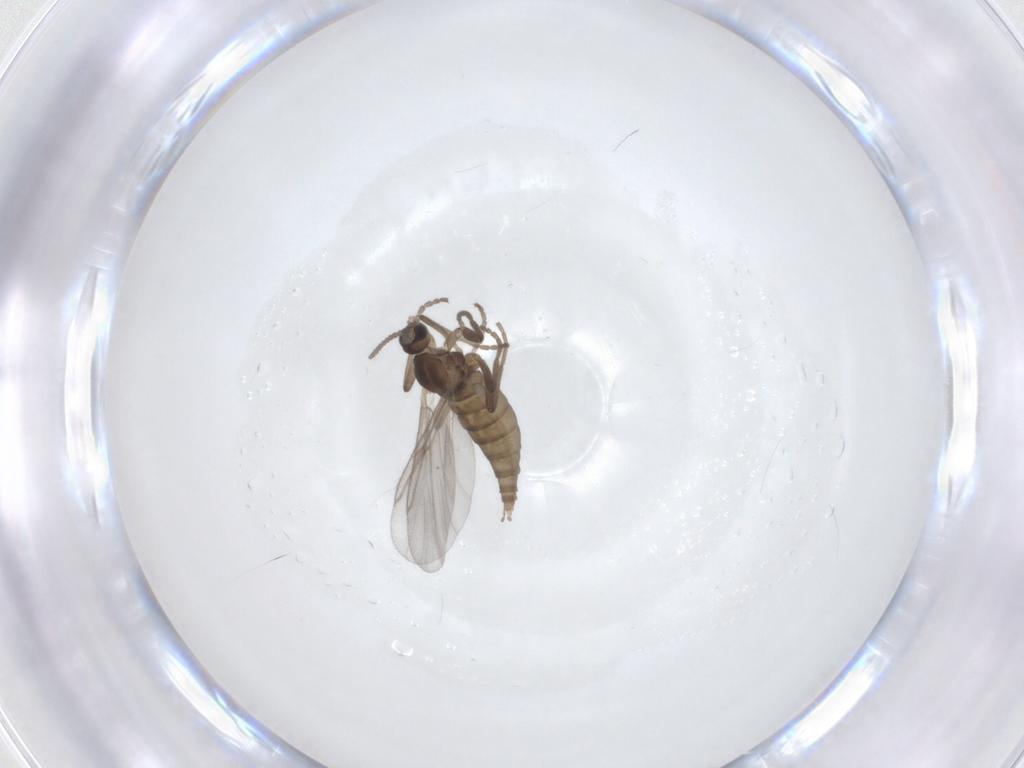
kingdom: Animalia
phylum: Arthropoda
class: Insecta
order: Diptera
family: Cecidomyiidae
